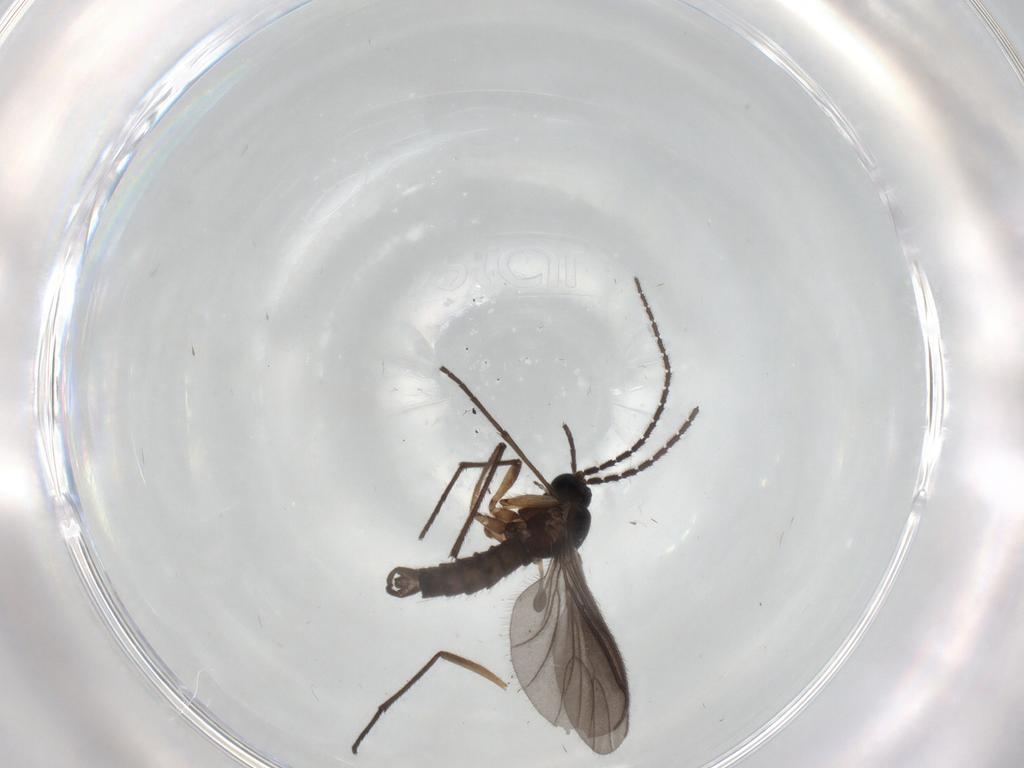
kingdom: Animalia
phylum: Arthropoda
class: Insecta
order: Diptera
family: Sciaridae
